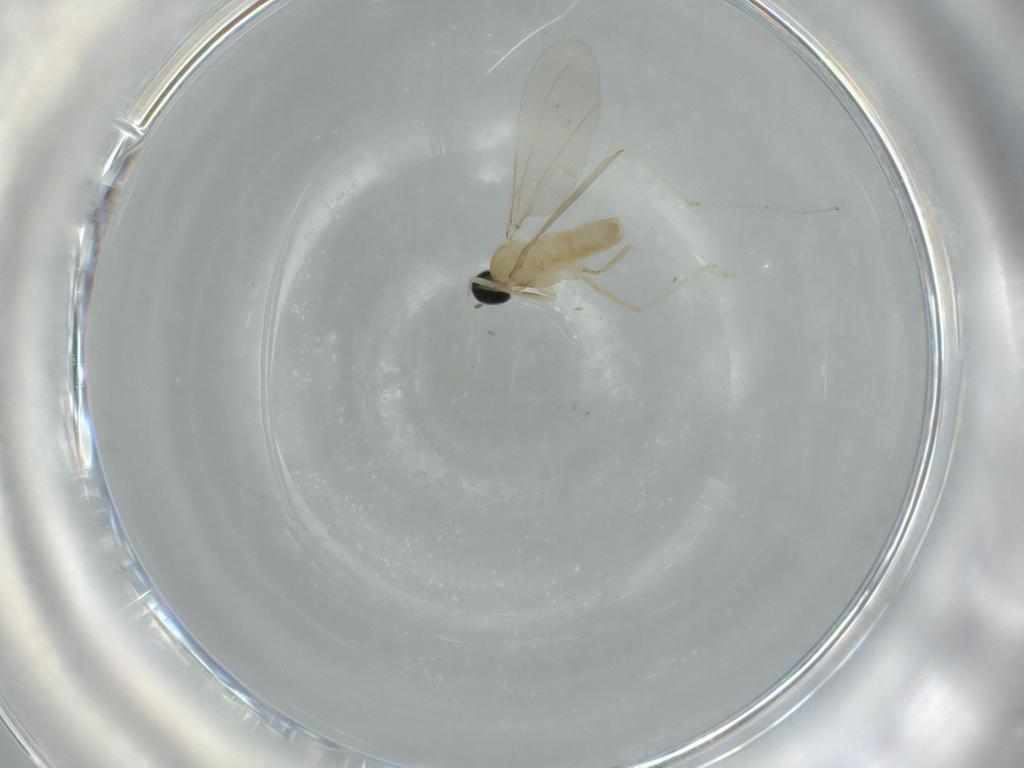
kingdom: Animalia
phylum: Arthropoda
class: Insecta
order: Diptera
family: Cecidomyiidae
